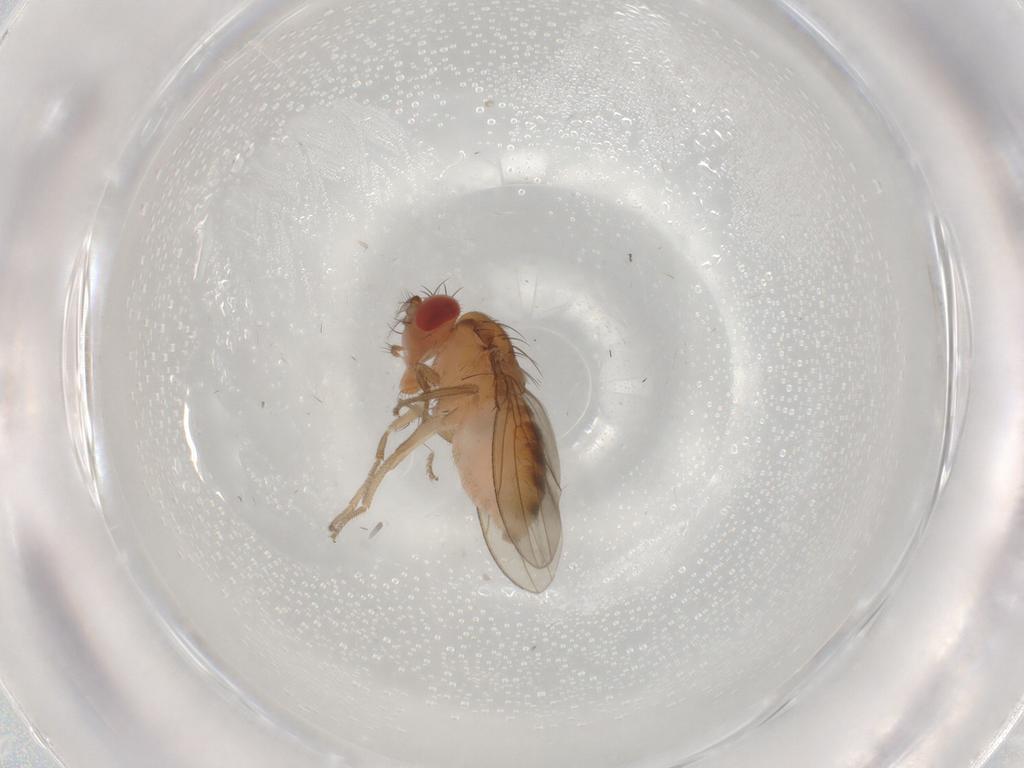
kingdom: Animalia
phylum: Arthropoda
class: Insecta
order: Diptera
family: Drosophilidae
